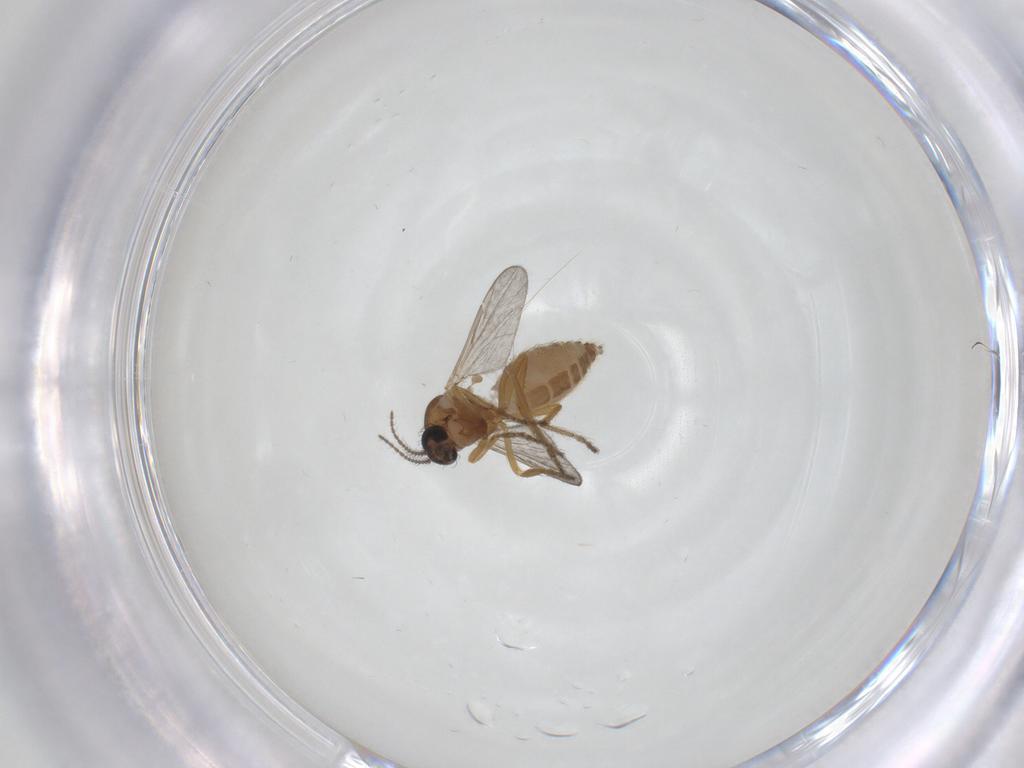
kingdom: Animalia
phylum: Arthropoda
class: Insecta
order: Diptera
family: Ceratopogonidae
